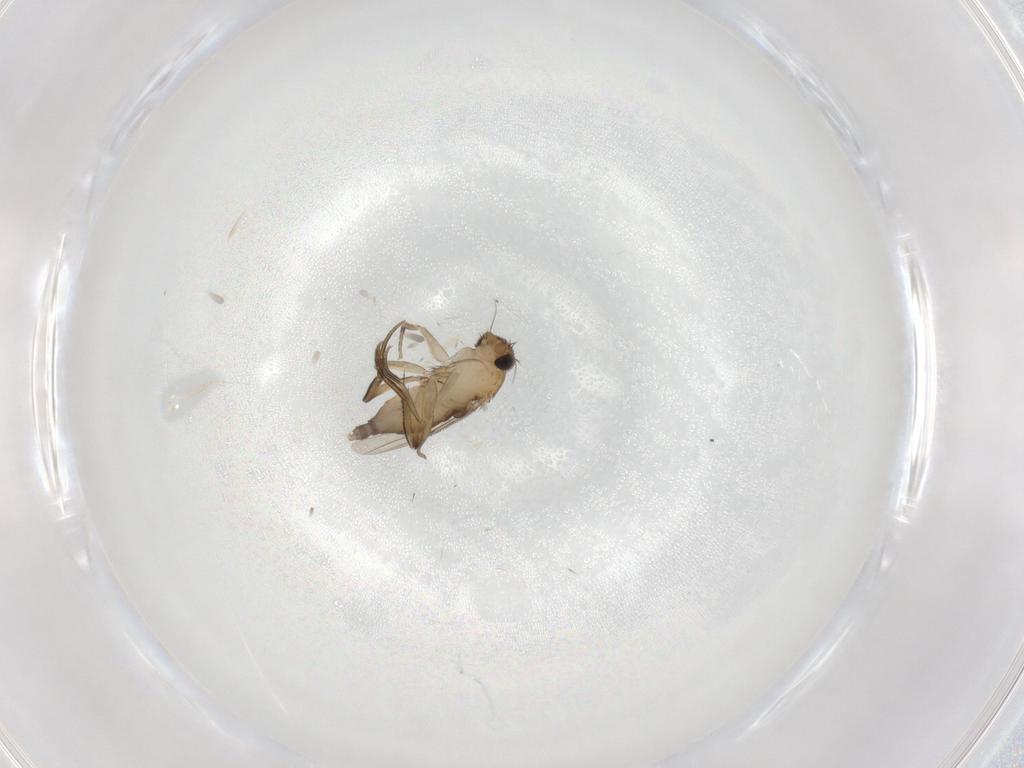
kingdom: Animalia
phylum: Arthropoda
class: Insecta
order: Diptera
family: Phoridae
